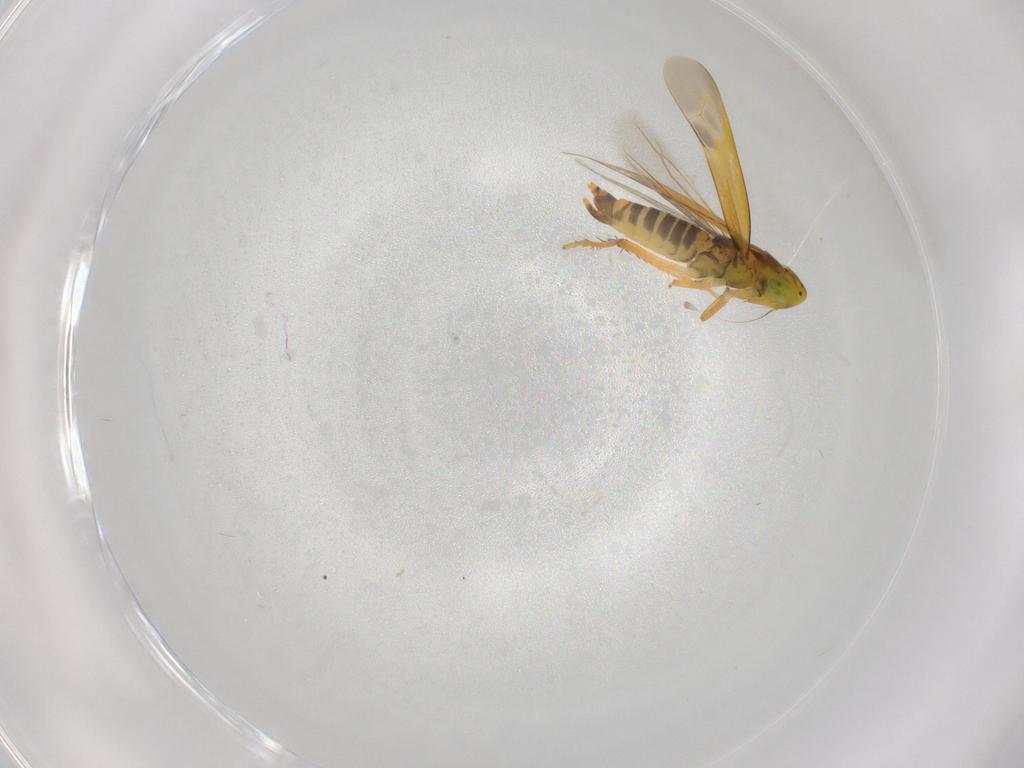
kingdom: Animalia
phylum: Arthropoda
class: Insecta
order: Hemiptera
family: Cicadellidae
